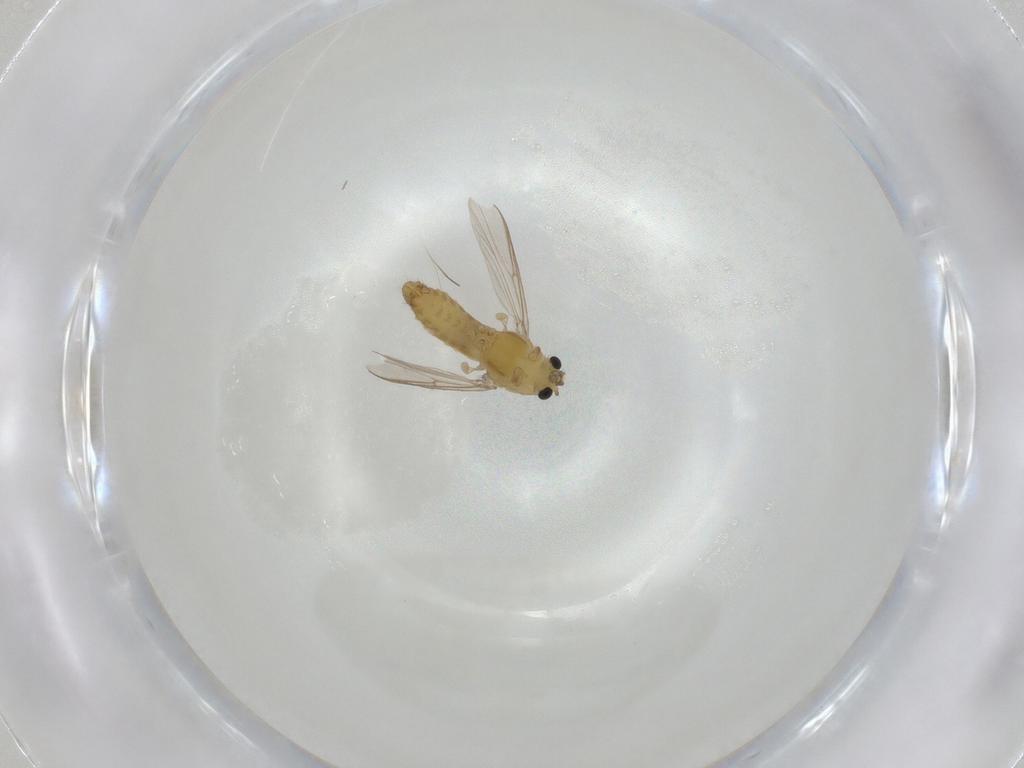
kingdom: Animalia
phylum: Arthropoda
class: Insecta
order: Diptera
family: Chironomidae
